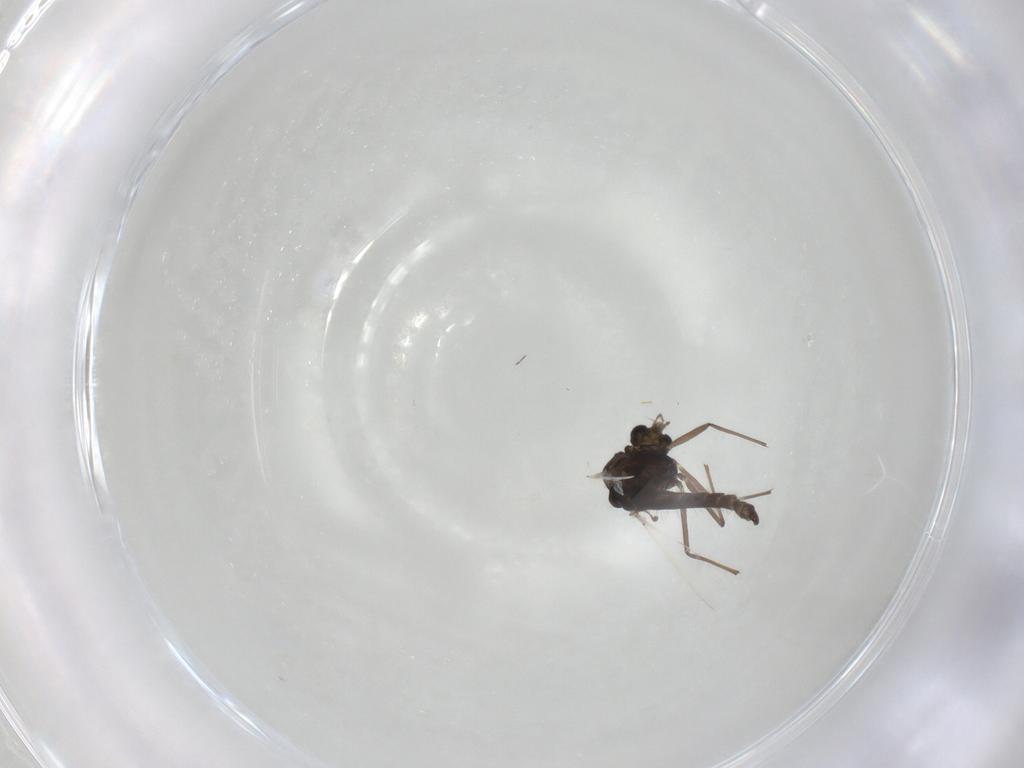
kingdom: Animalia
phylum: Arthropoda
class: Insecta
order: Diptera
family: Chironomidae
